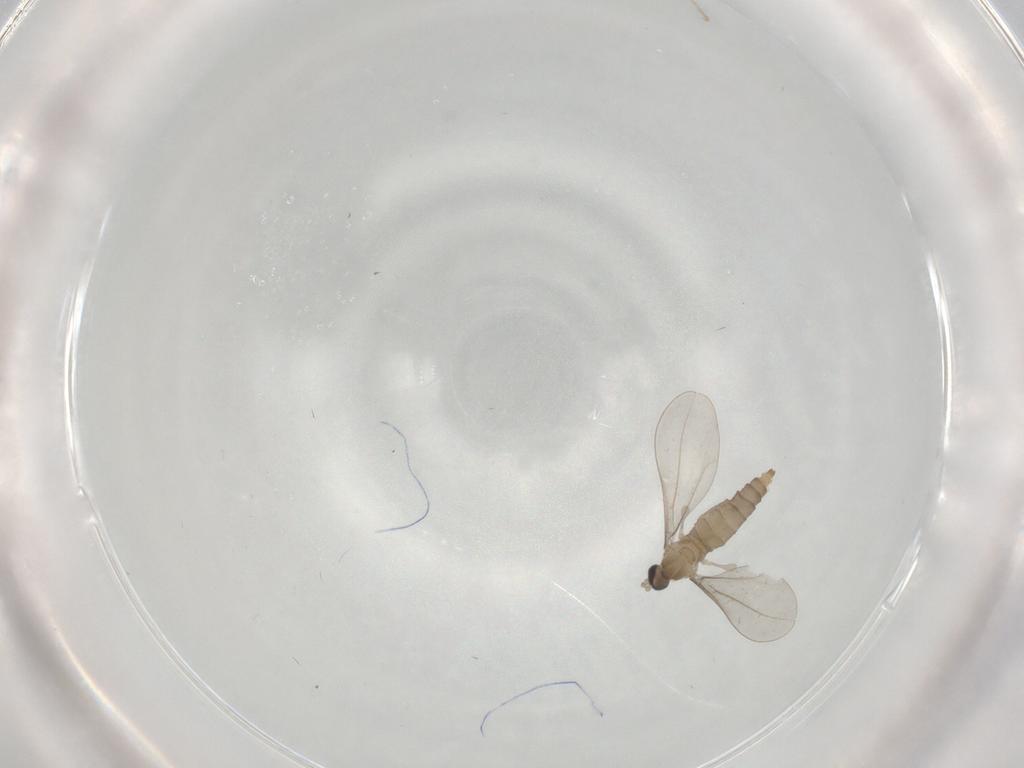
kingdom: Animalia
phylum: Arthropoda
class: Insecta
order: Diptera
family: Cecidomyiidae
